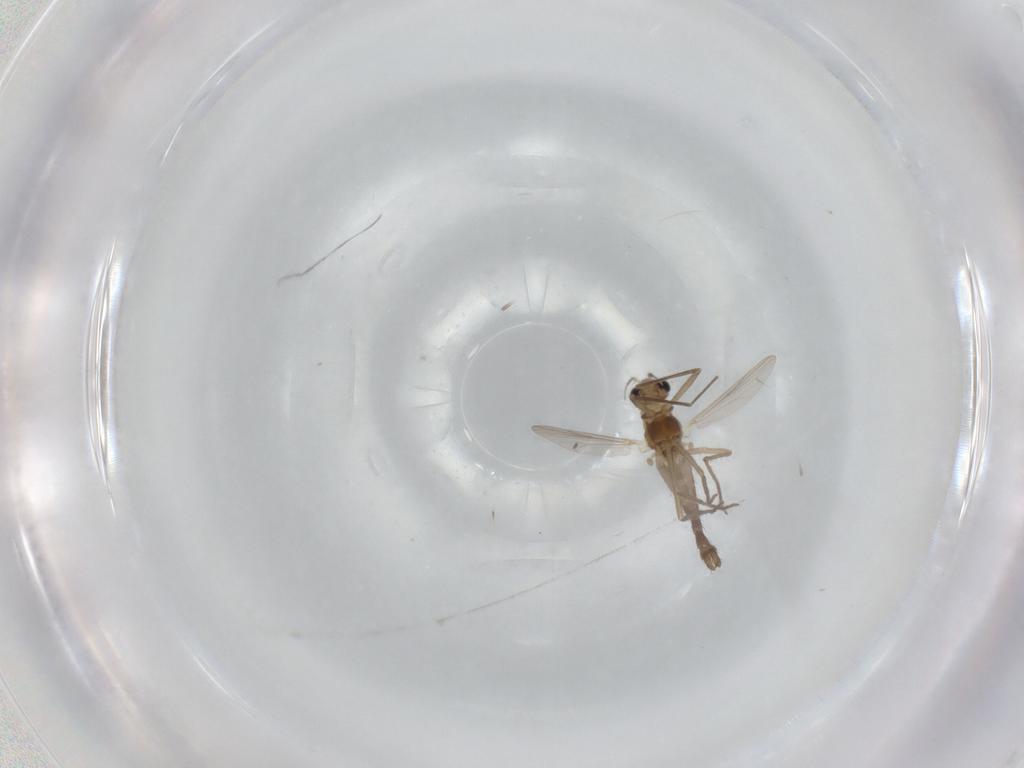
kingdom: Animalia
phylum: Arthropoda
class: Insecta
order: Diptera
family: Chironomidae
